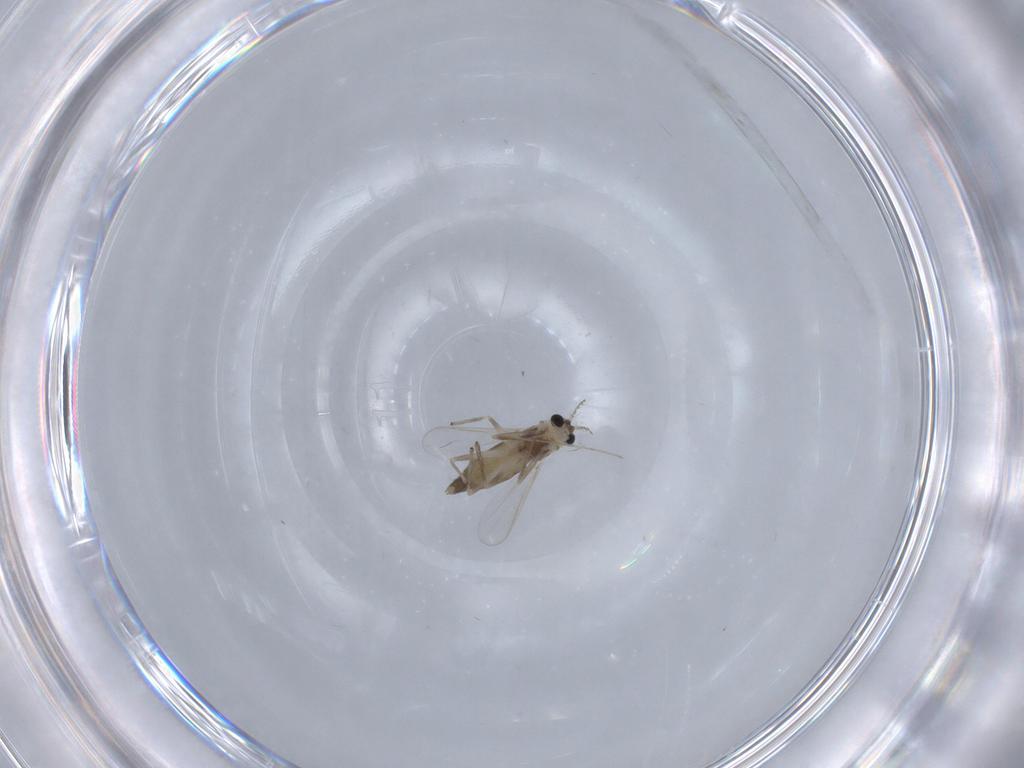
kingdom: Animalia
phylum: Arthropoda
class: Insecta
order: Diptera
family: Chironomidae
